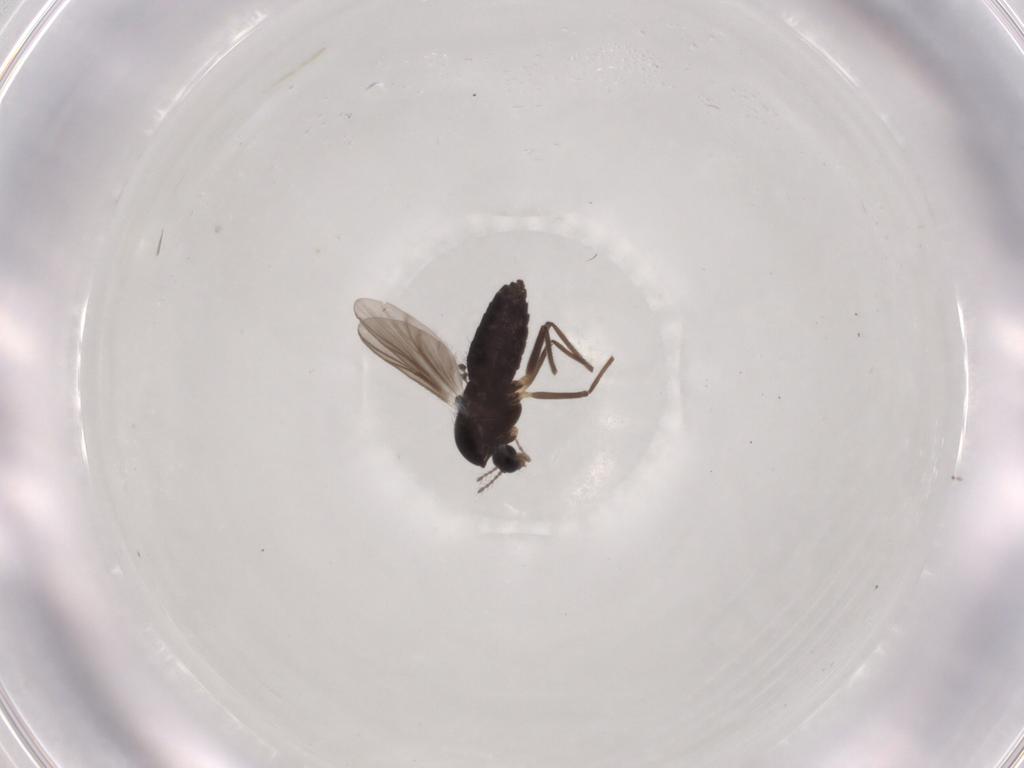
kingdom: Animalia
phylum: Arthropoda
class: Insecta
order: Diptera
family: Chironomidae
